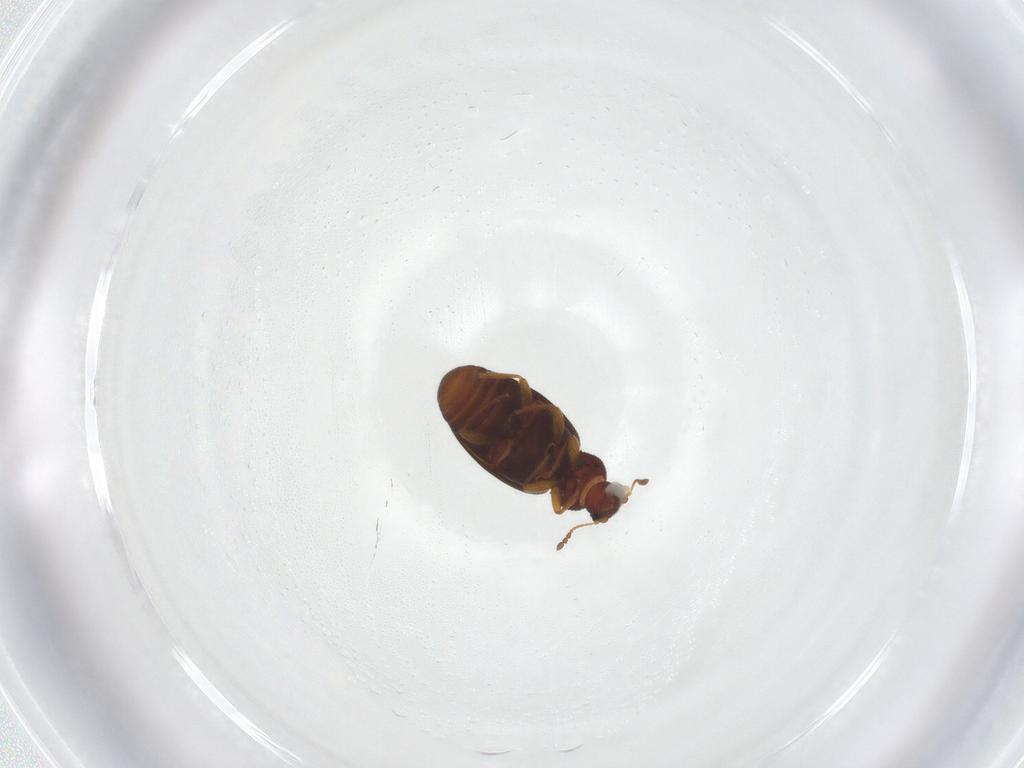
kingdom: Animalia
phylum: Arthropoda
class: Insecta
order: Coleoptera
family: Latridiidae
